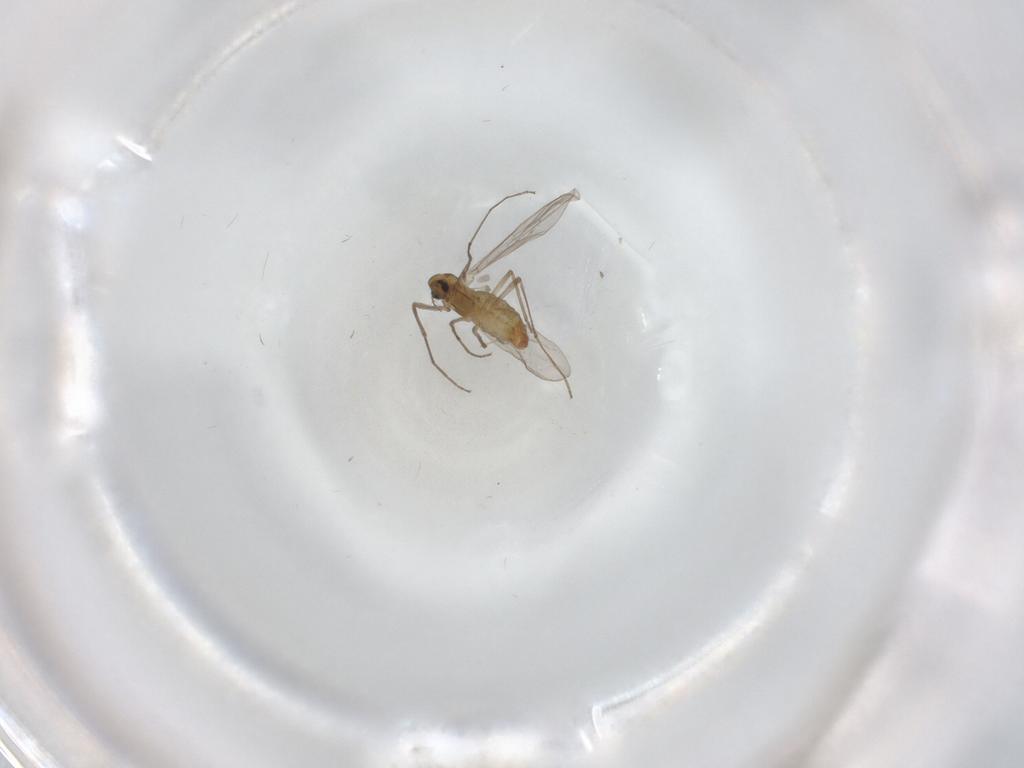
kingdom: Animalia
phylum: Arthropoda
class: Insecta
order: Diptera
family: Chironomidae
